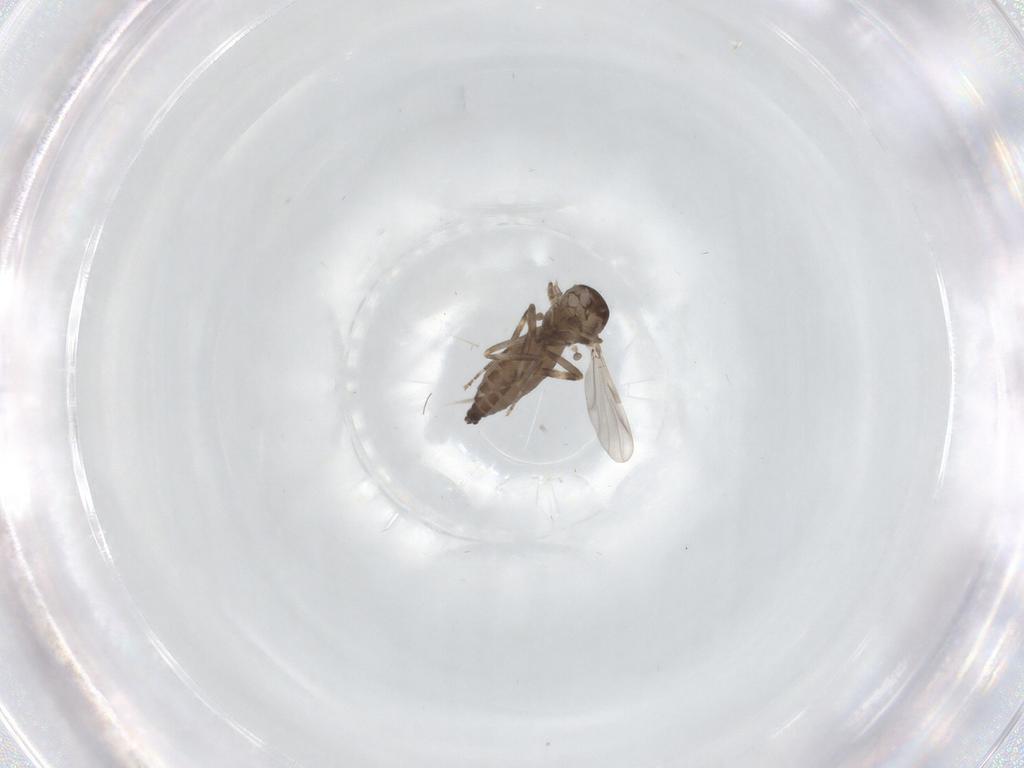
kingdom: Animalia
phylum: Arthropoda
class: Insecta
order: Diptera
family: Ceratopogonidae
